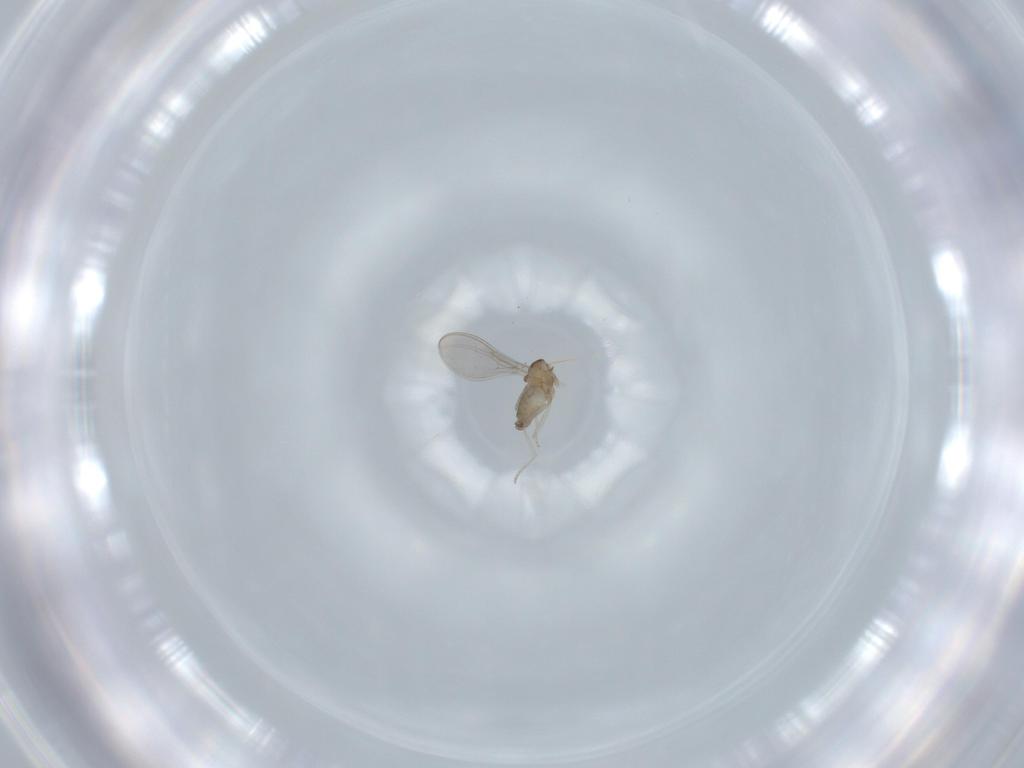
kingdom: Animalia
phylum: Arthropoda
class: Insecta
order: Diptera
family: Cecidomyiidae
